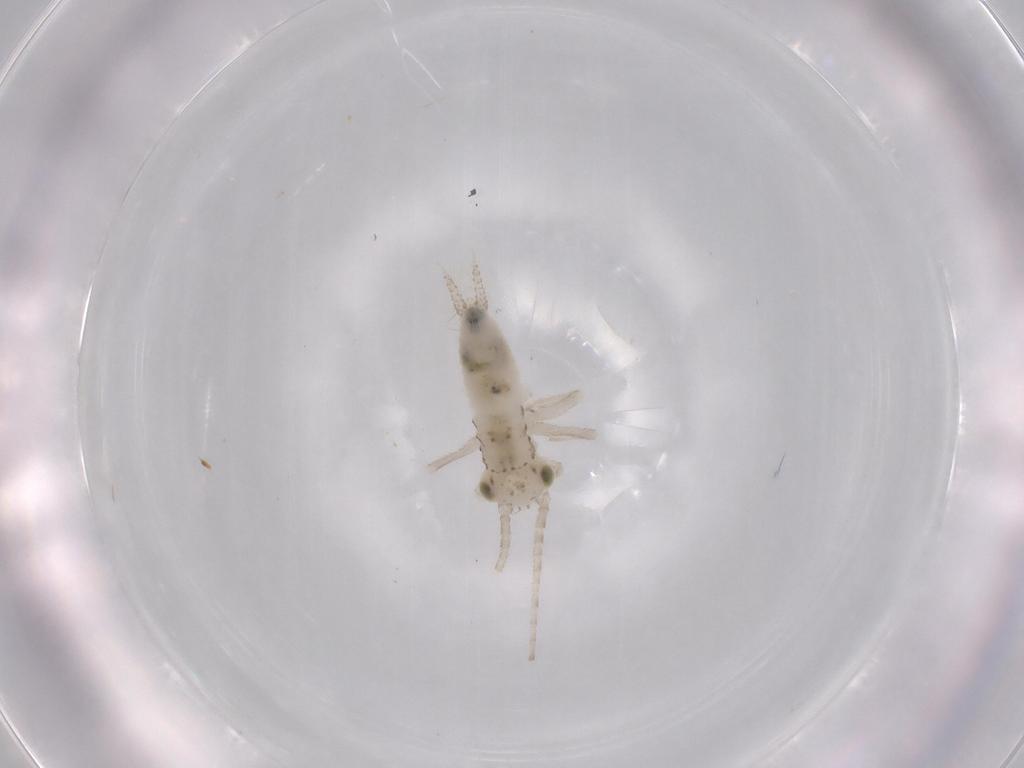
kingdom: Animalia
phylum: Arthropoda
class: Insecta
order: Orthoptera
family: Trigonidiidae
